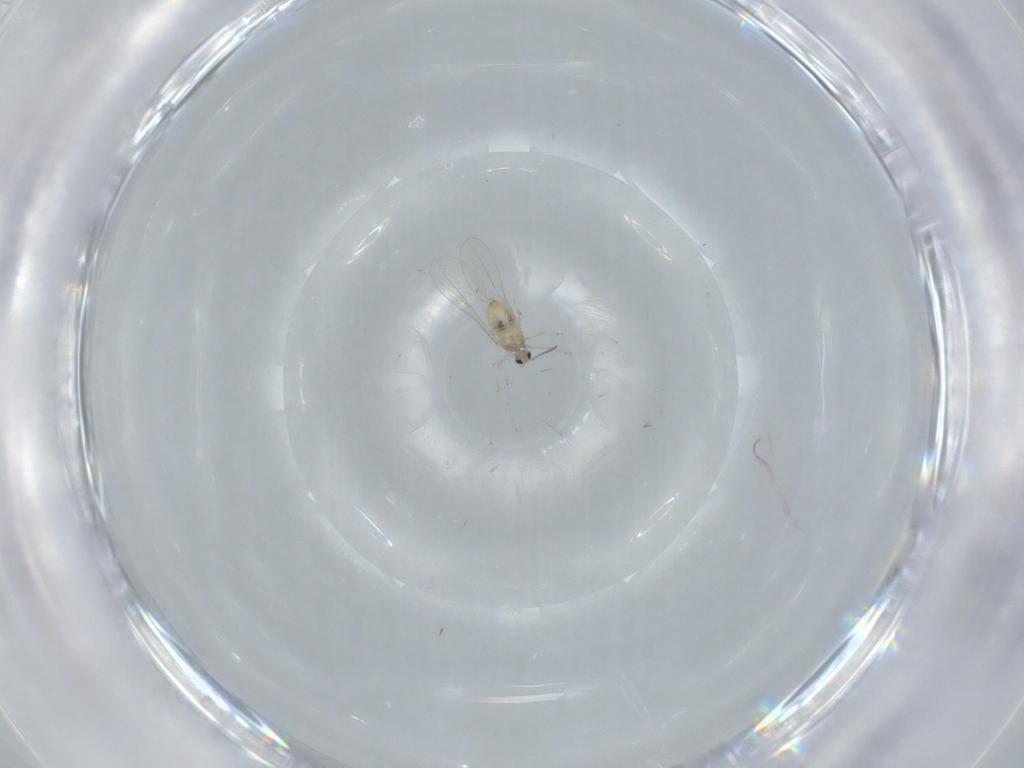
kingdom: Animalia
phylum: Arthropoda
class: Insecta
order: Diptera
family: Cecidomyiidae
